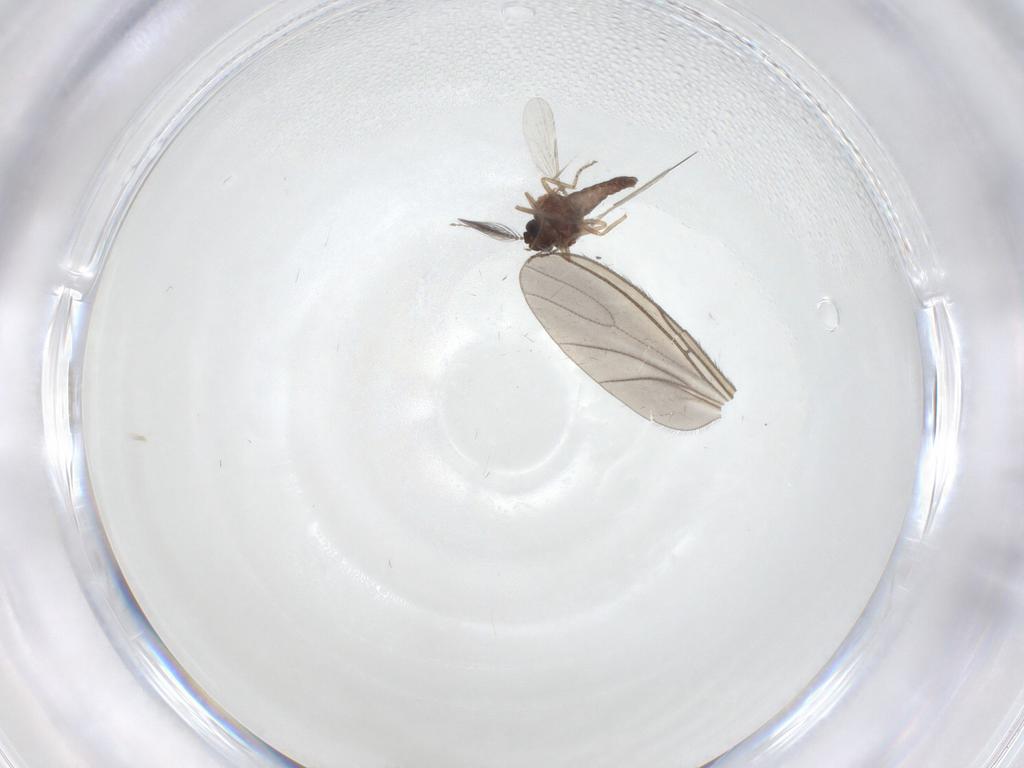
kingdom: Animalia
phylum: Arthropoda
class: Insecta
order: Diptera
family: Ceratopogonidae
